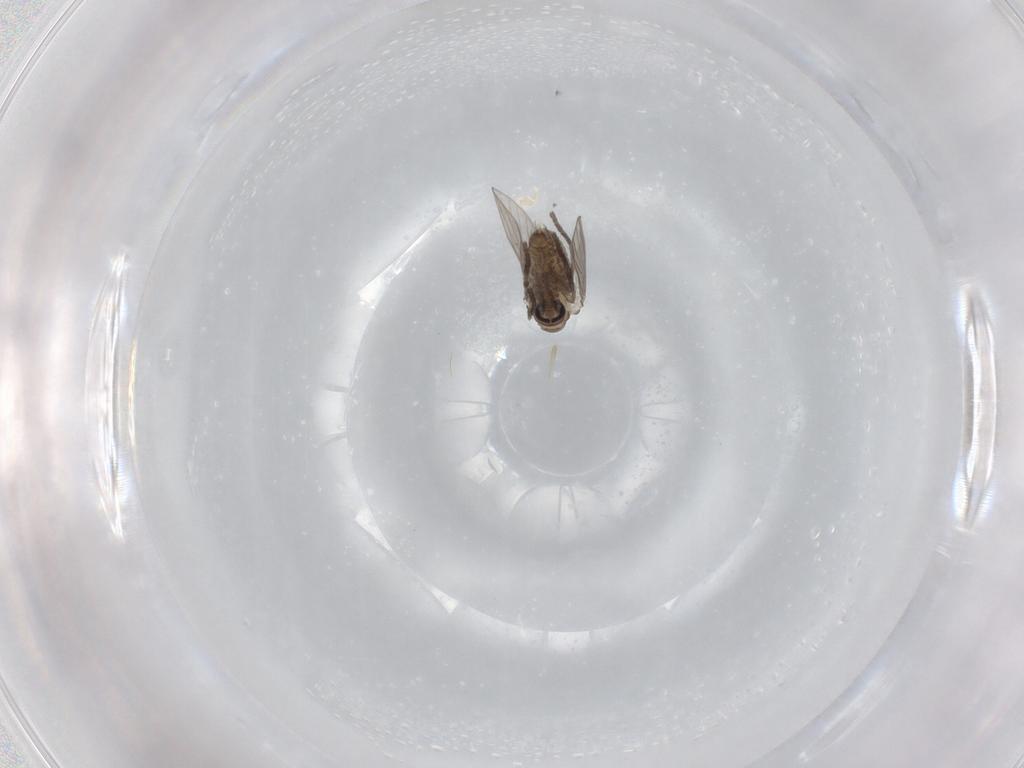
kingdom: Animalia
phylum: Arthropoda
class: Insecta
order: Diptera
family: Psychodidae
